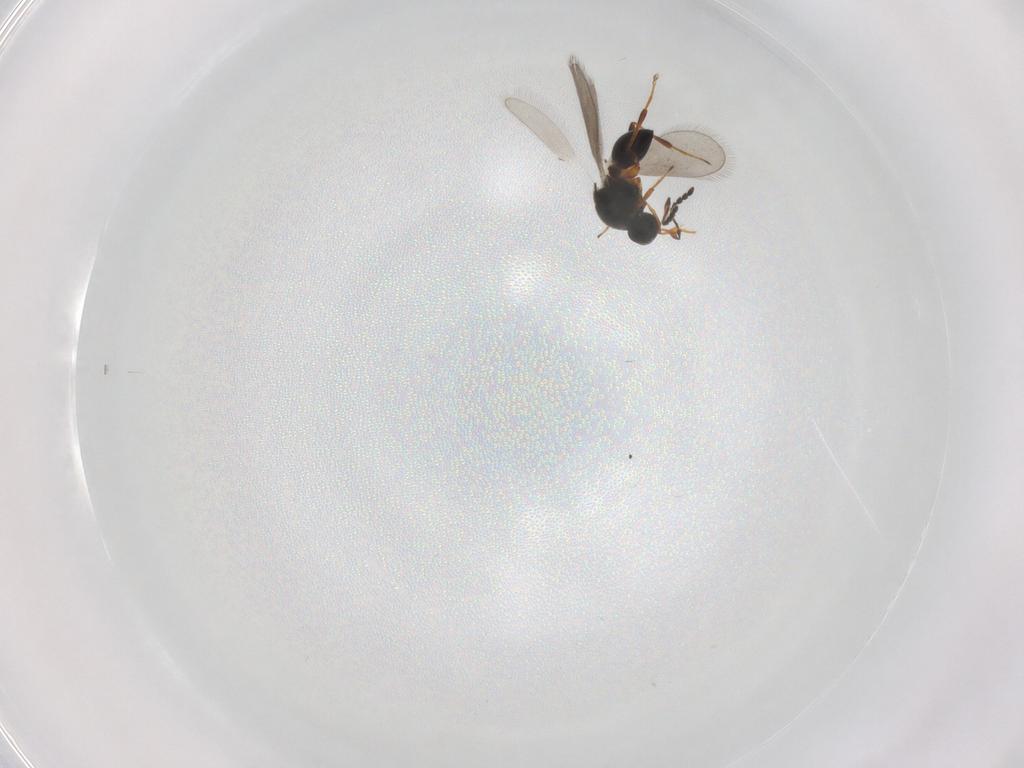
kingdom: Animalia
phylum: Arthropoda
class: Insecta
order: Hymenoptera
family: Platygastridae
